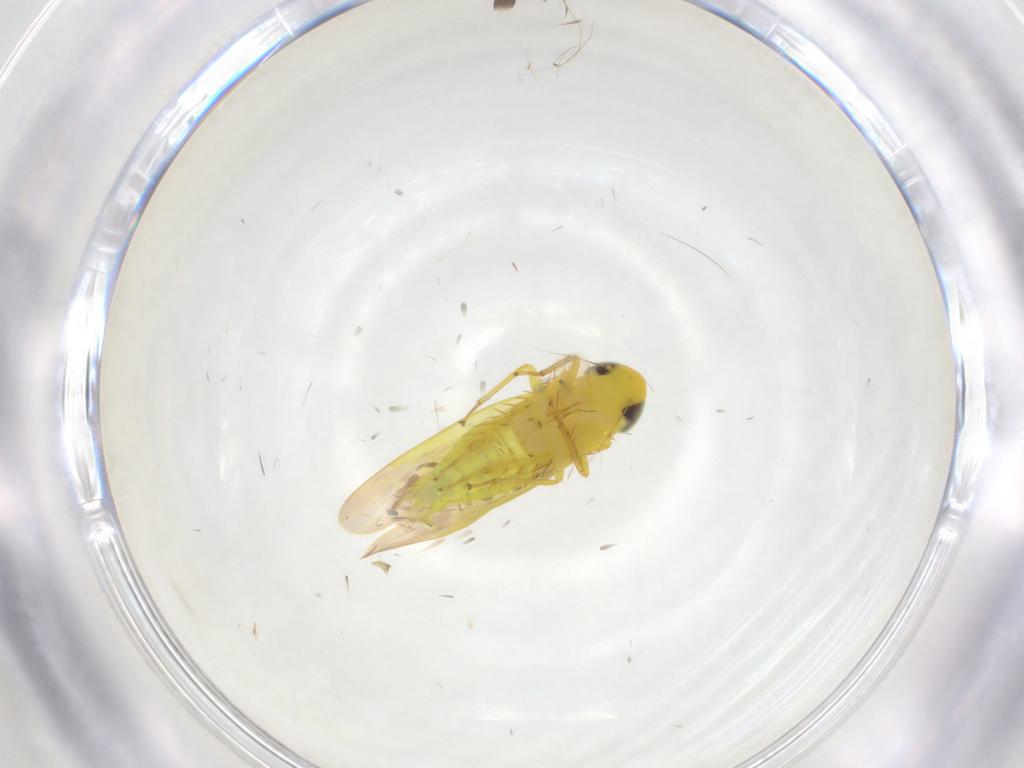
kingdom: Animalia
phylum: Arthropoda
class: Insecta
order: Hemiptera
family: Cicadellidae
